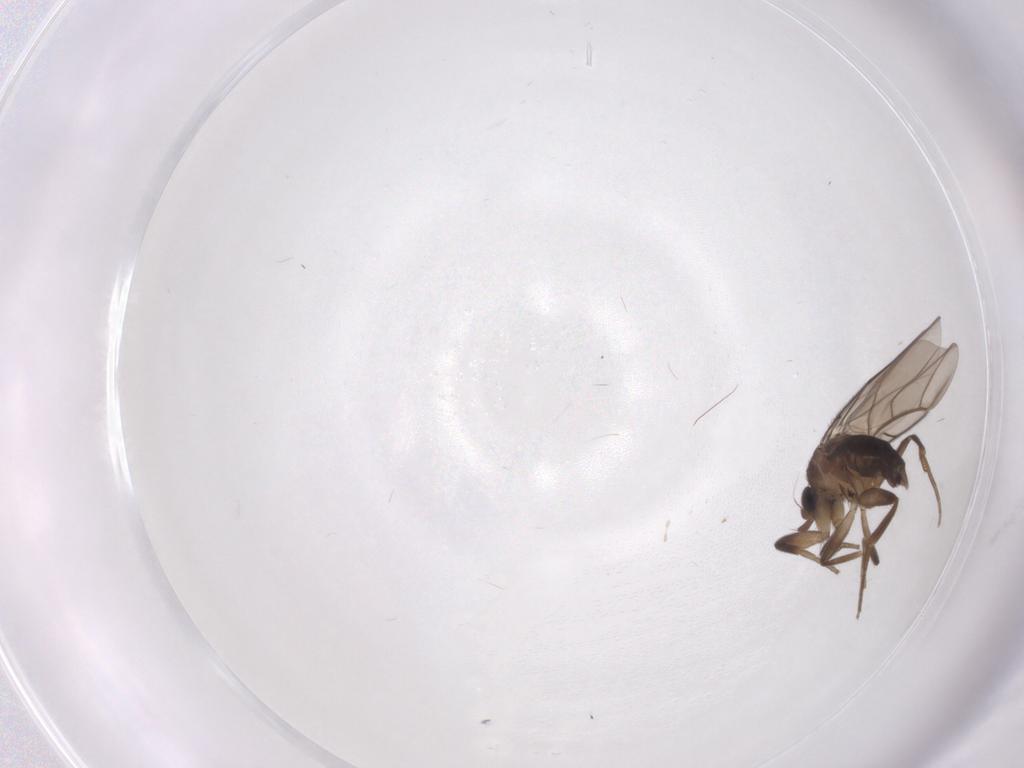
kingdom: Animalia
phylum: Arthropoda
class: Insecta
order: Diptera
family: Phoridae
